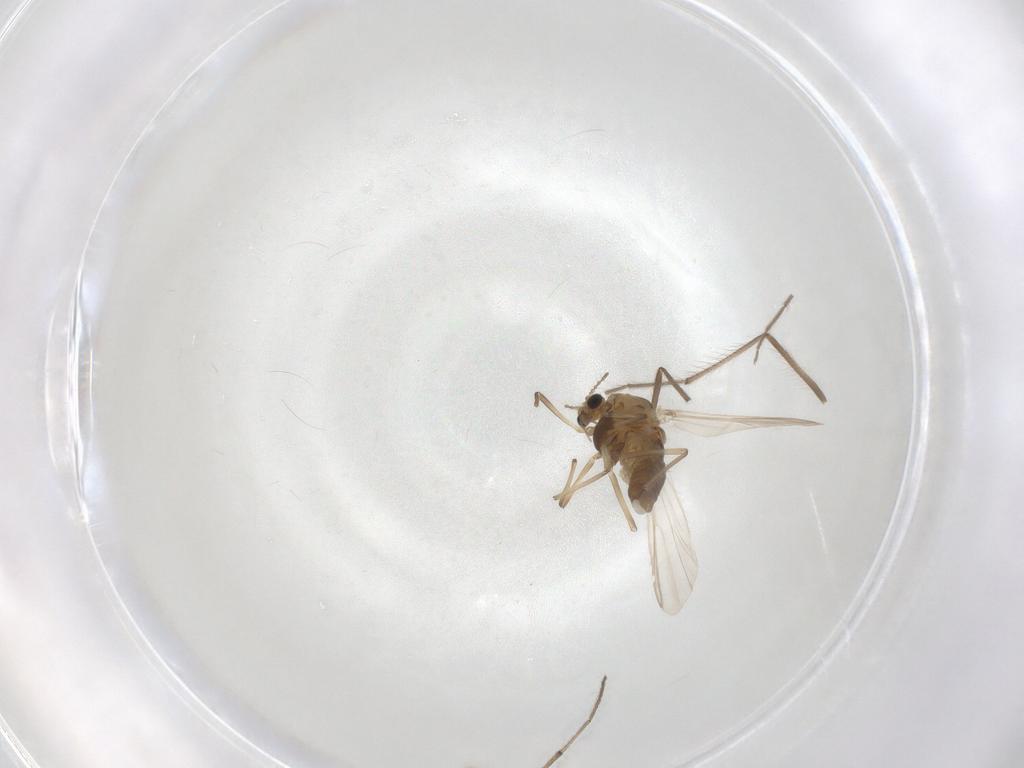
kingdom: Animalia
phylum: Arthropoda
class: Insecta
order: Diptera
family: Chironomidae
